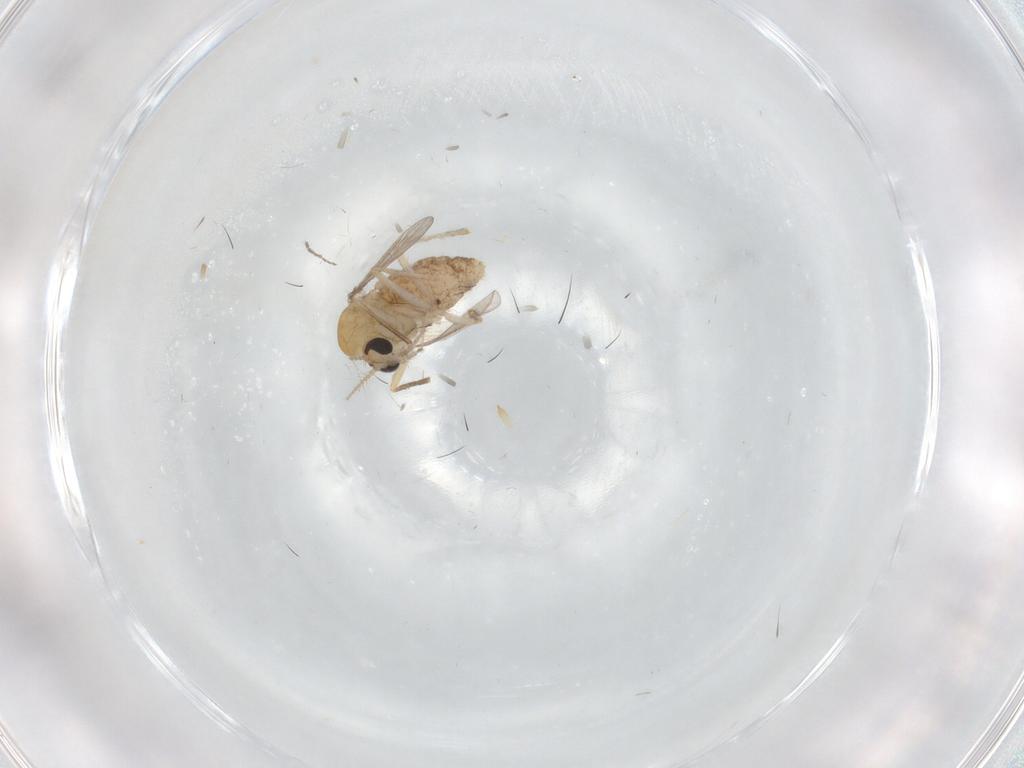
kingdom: Animalia
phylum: Arthropoda
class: Insecta
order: Diptera
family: Chironomidae
